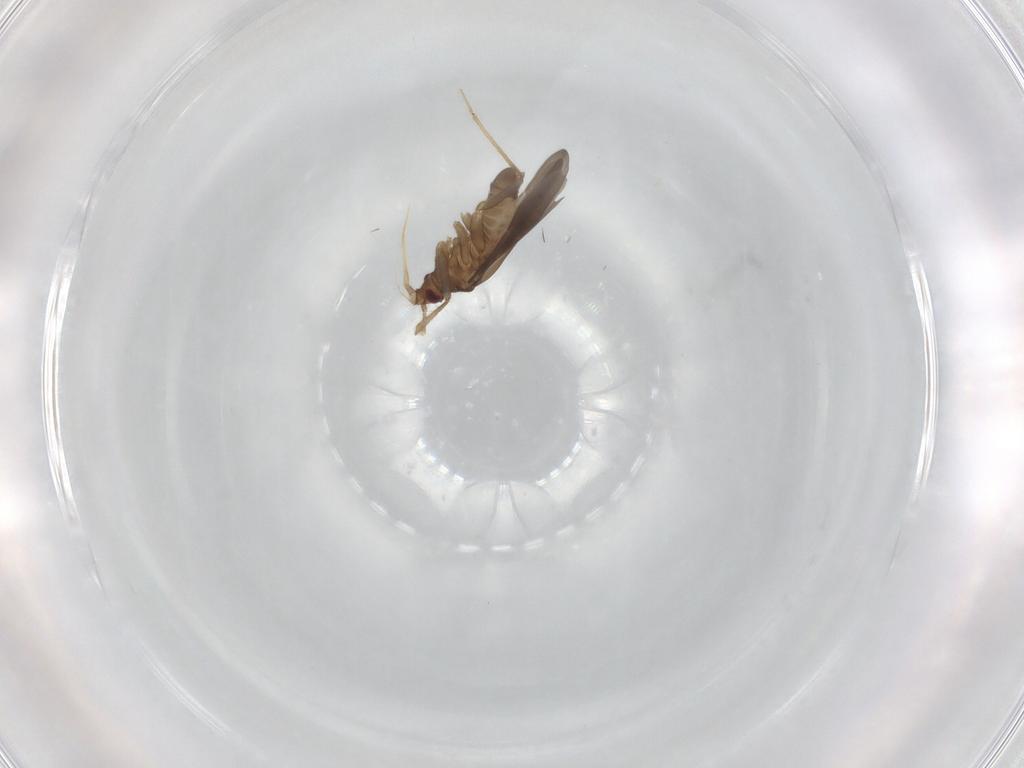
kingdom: Animalia
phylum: Arthropoda
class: Insecta
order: Hemiptera
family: Ceratocombidae
